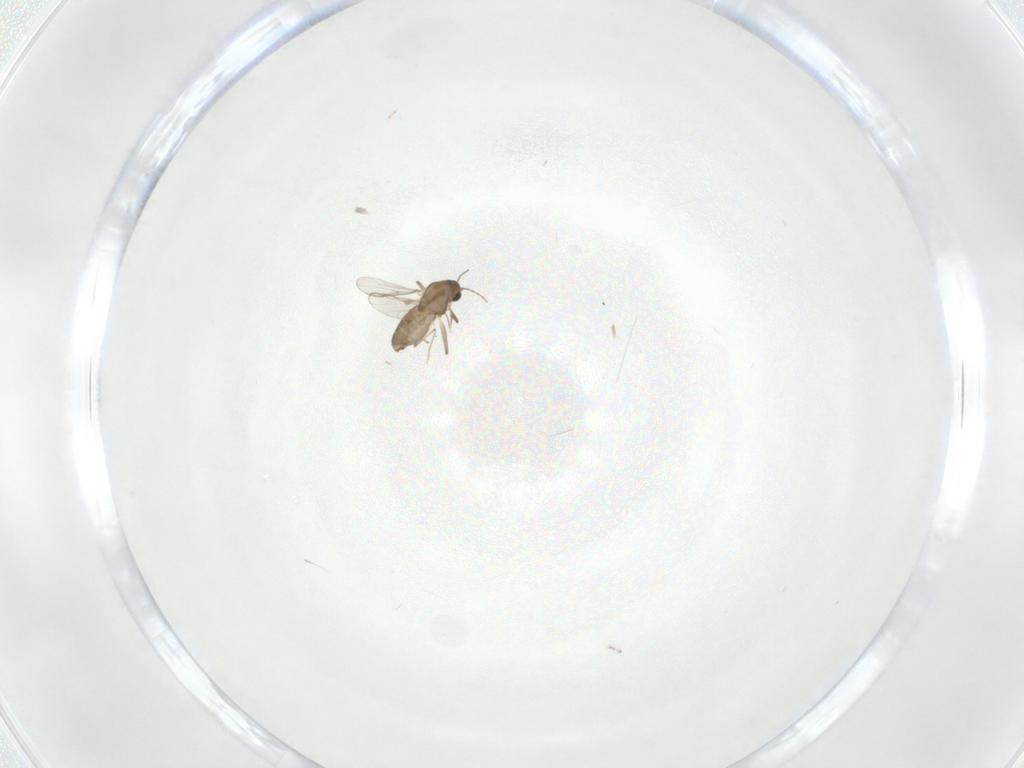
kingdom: Animalia
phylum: Arthropoda
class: Insecta
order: Diptera
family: Chironomidae
